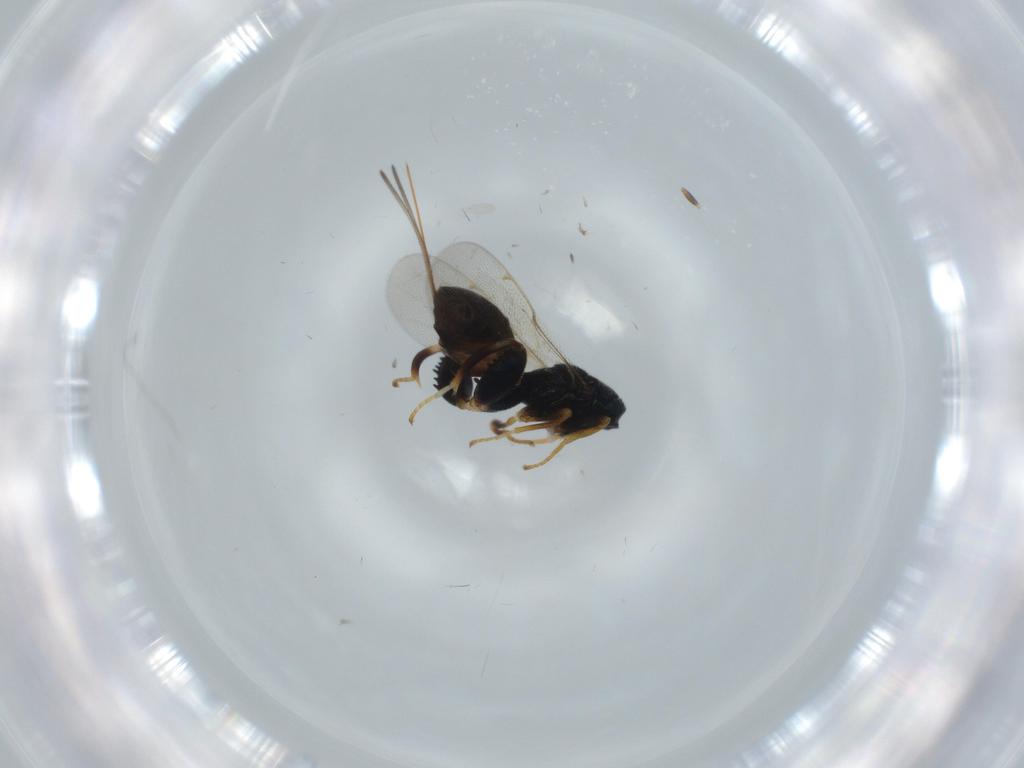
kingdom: Animalia
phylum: Arthropoda
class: Insecta
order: Hymenoptera
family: Torymidae
